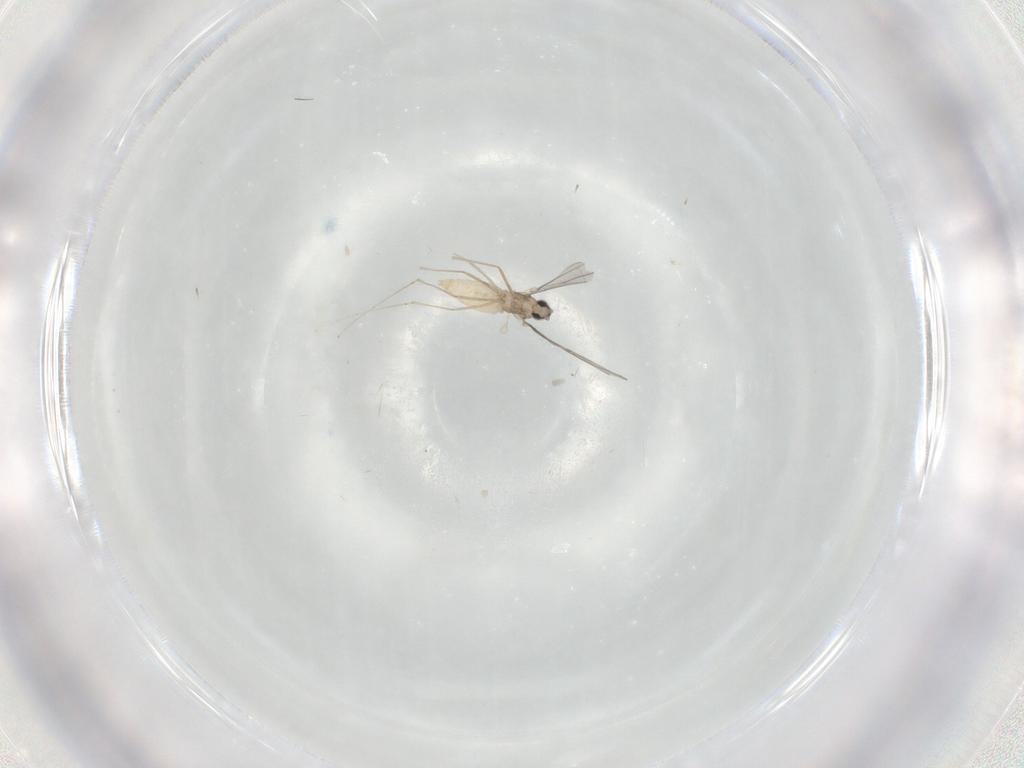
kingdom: Animalia
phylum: Arthropoda
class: Insecta
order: Diptera
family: Cecidomyiidae
